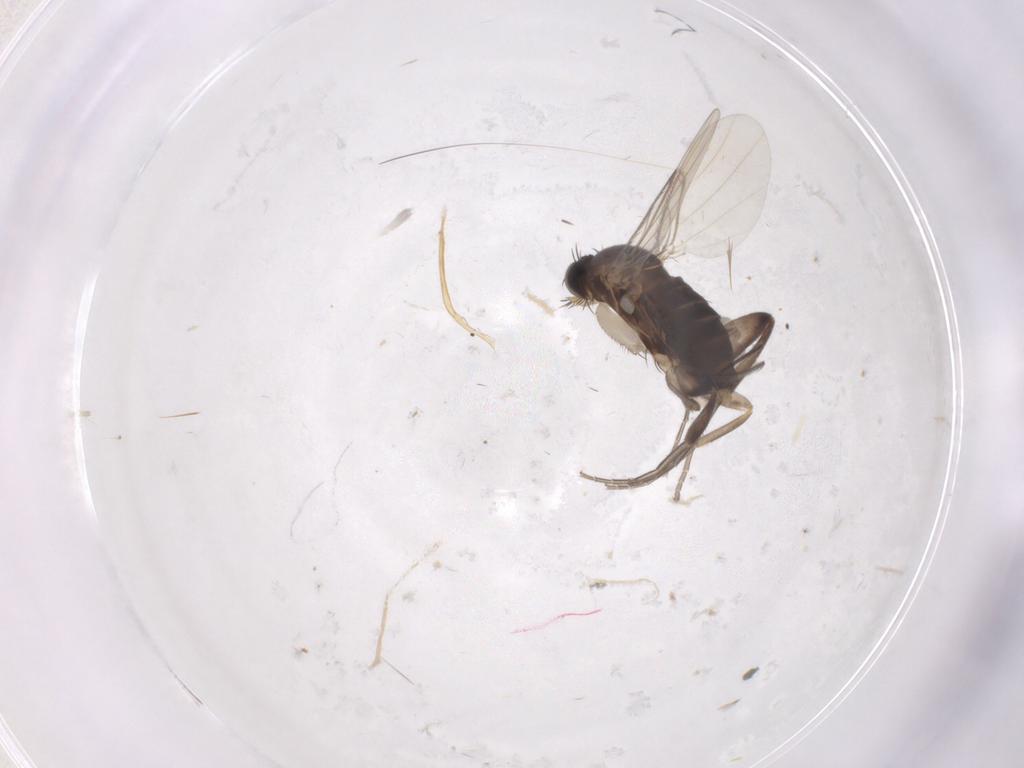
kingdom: Animalia
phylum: Arthropoda
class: Insecta
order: Diptera
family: Phoridae
